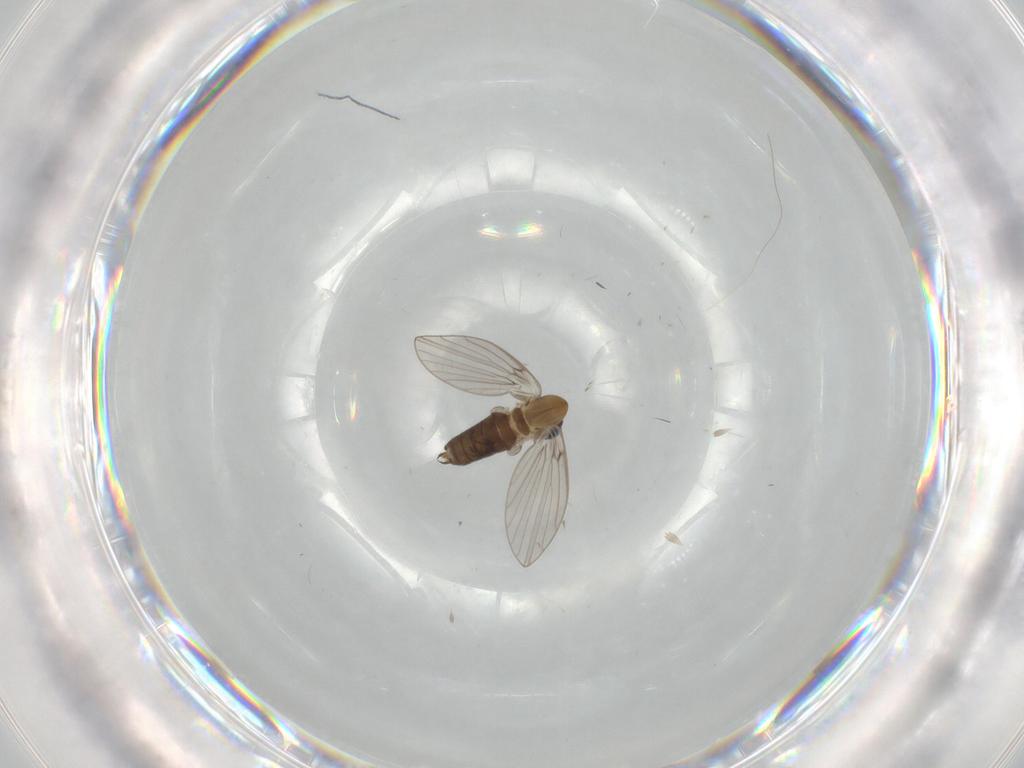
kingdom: Animalia
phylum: Arthropoda
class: Insecta
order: Diptera
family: Psychodidae
